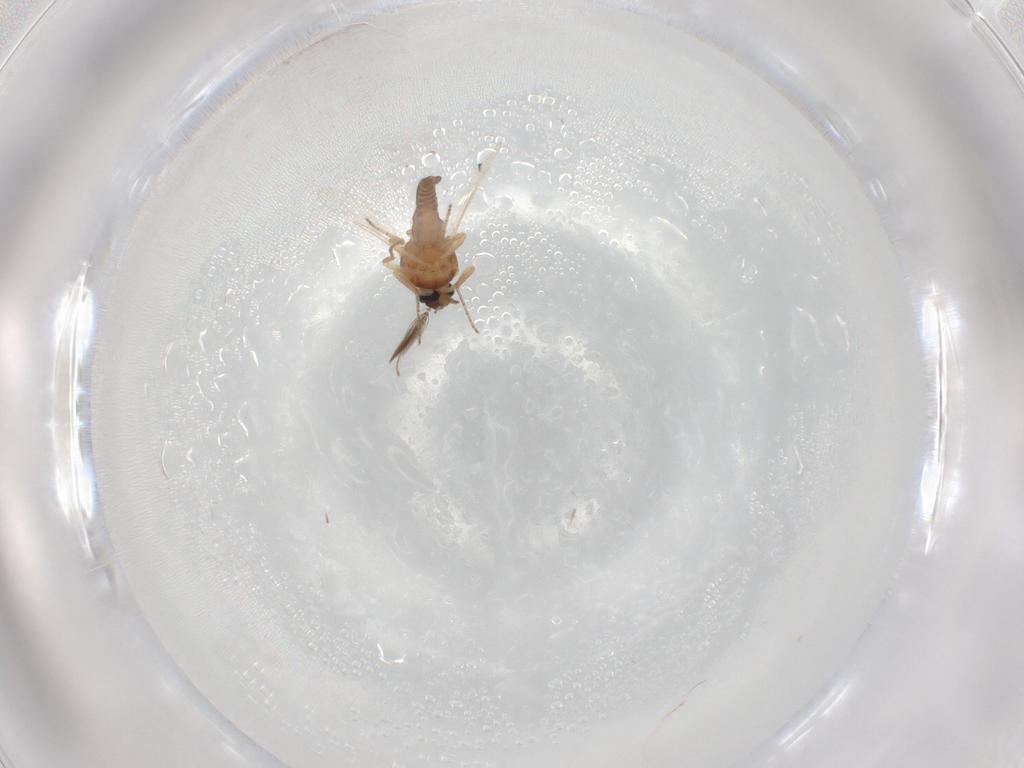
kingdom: Animalia
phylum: Arthropoda
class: Insecta
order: Diptera
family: Ceratopogonidae
